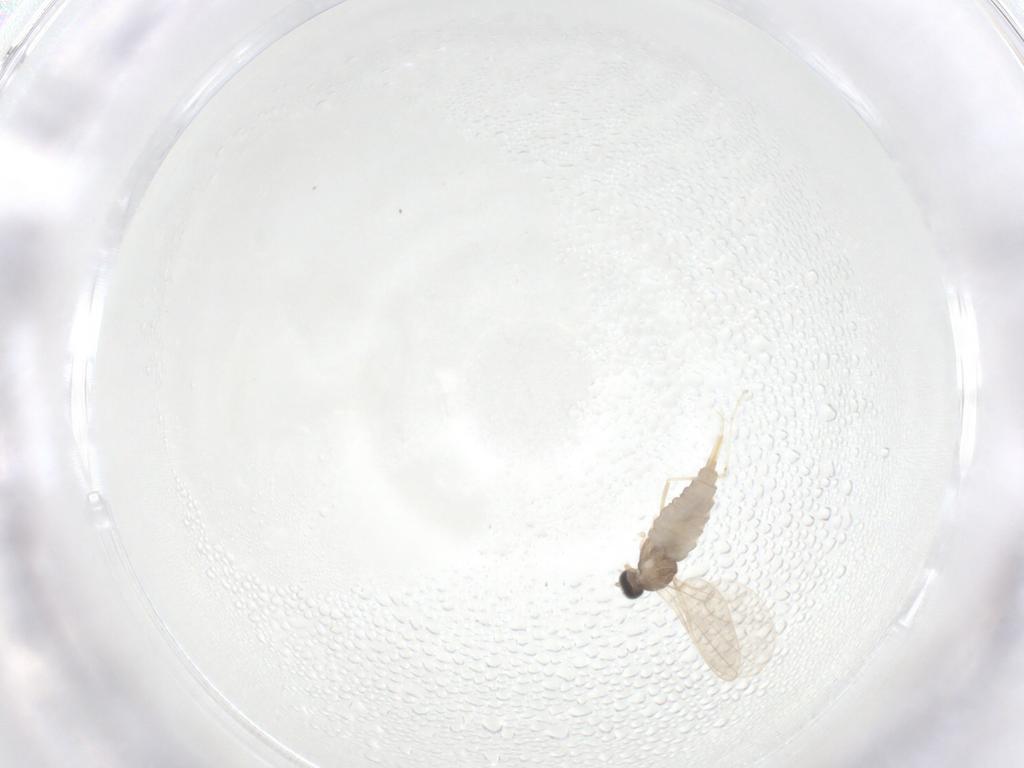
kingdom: Animalia
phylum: Arthropoda
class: Insecta
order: Diptera
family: Cecidomyiidae
